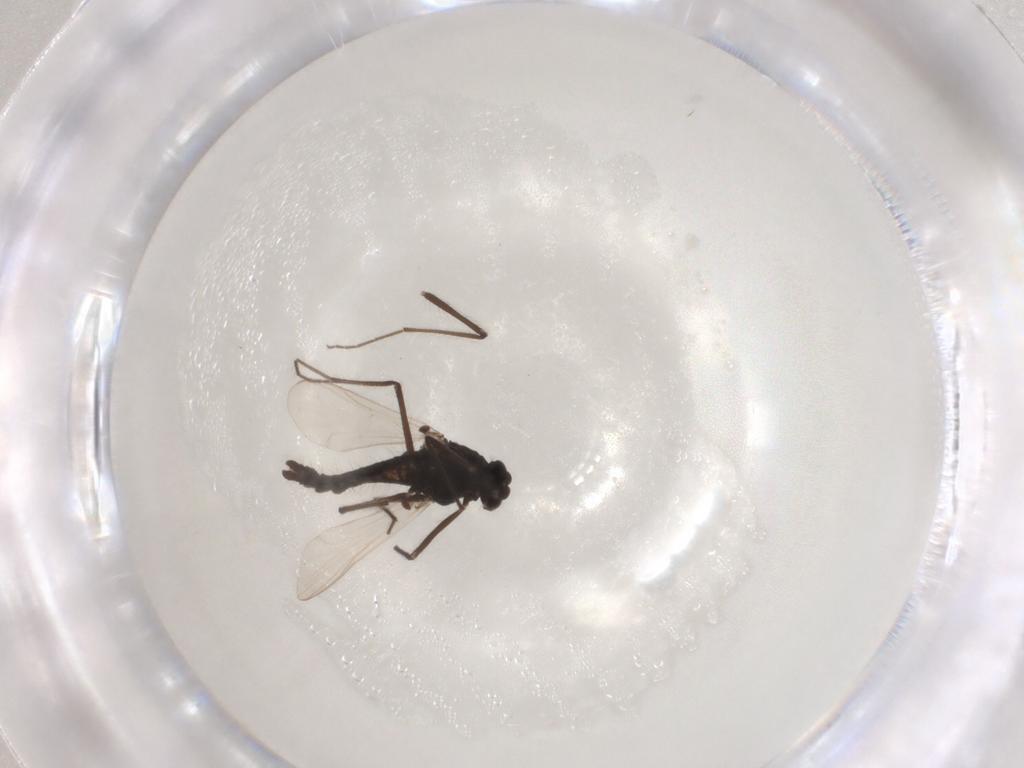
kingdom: Animalia
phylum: Arthropoda
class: Insecta
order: Diptera
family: Chironomidae
